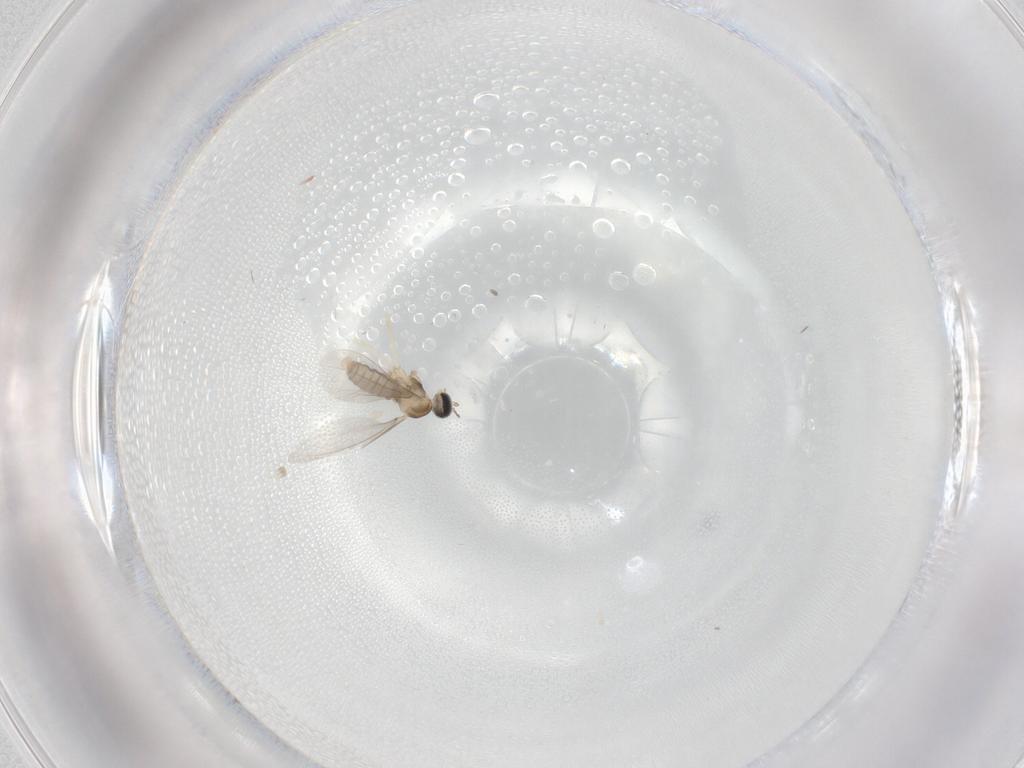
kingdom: Animalia
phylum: Arthropoda
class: Insecta
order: Diptera
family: Cecidomyiidae
